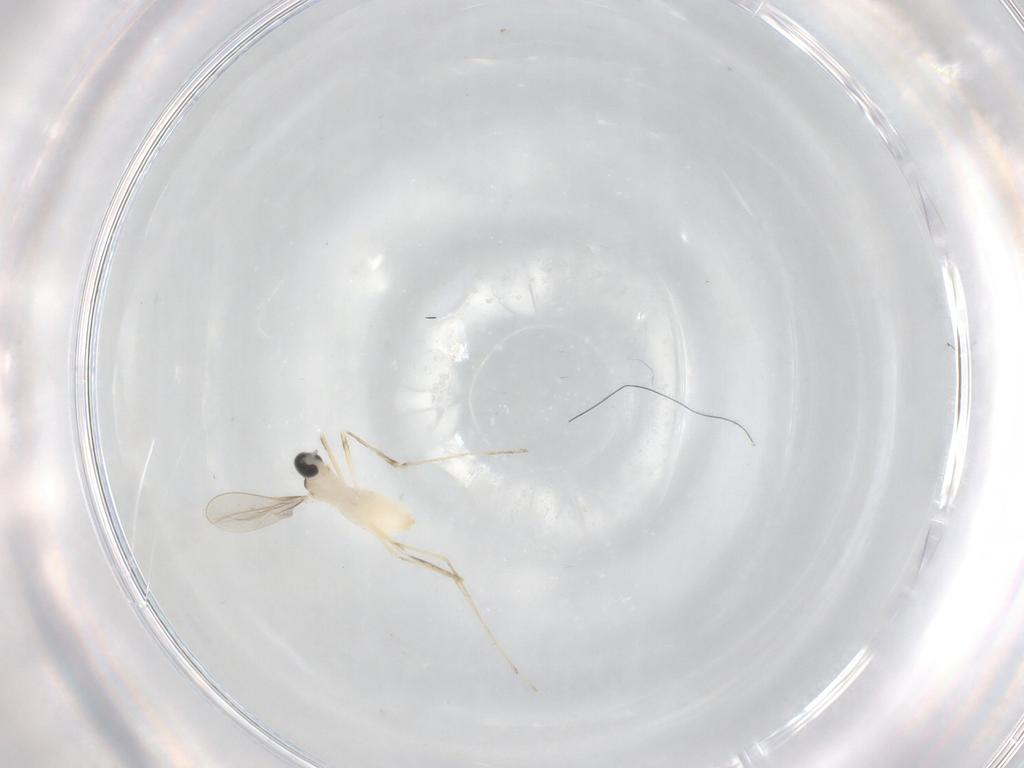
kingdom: Animalia
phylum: Arthropoda
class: Insecta
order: Diptera
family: Cecidomyiidae
